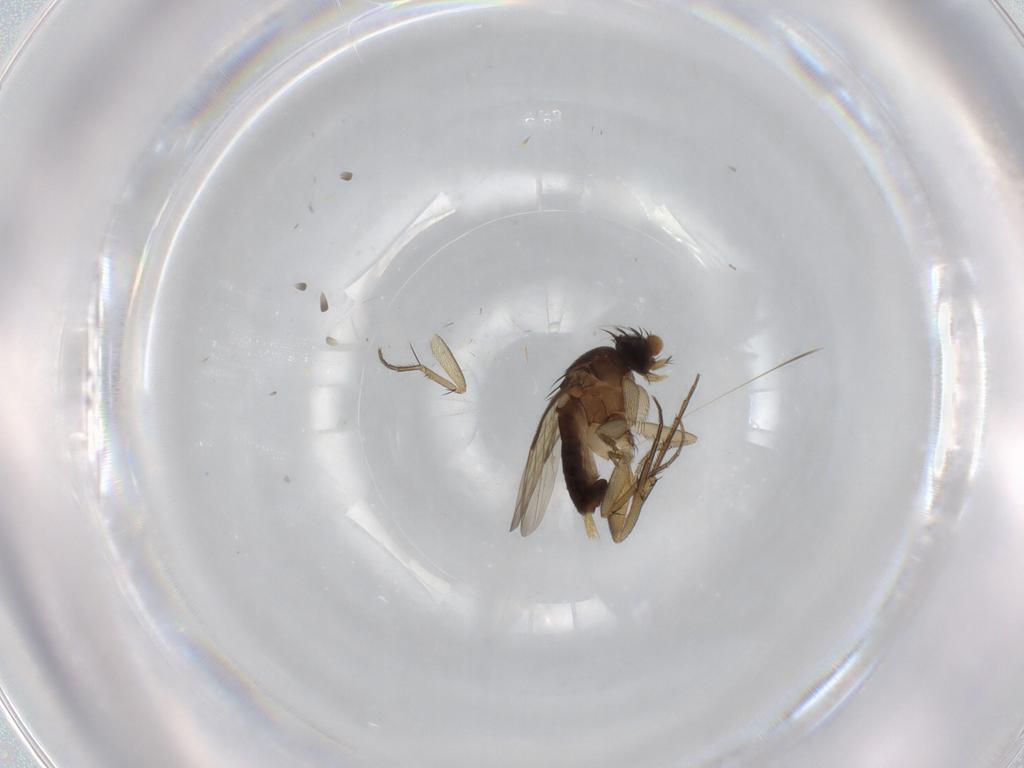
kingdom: Animalia
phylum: Arthropoda
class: Insecta
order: Diptera
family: Phoridae
